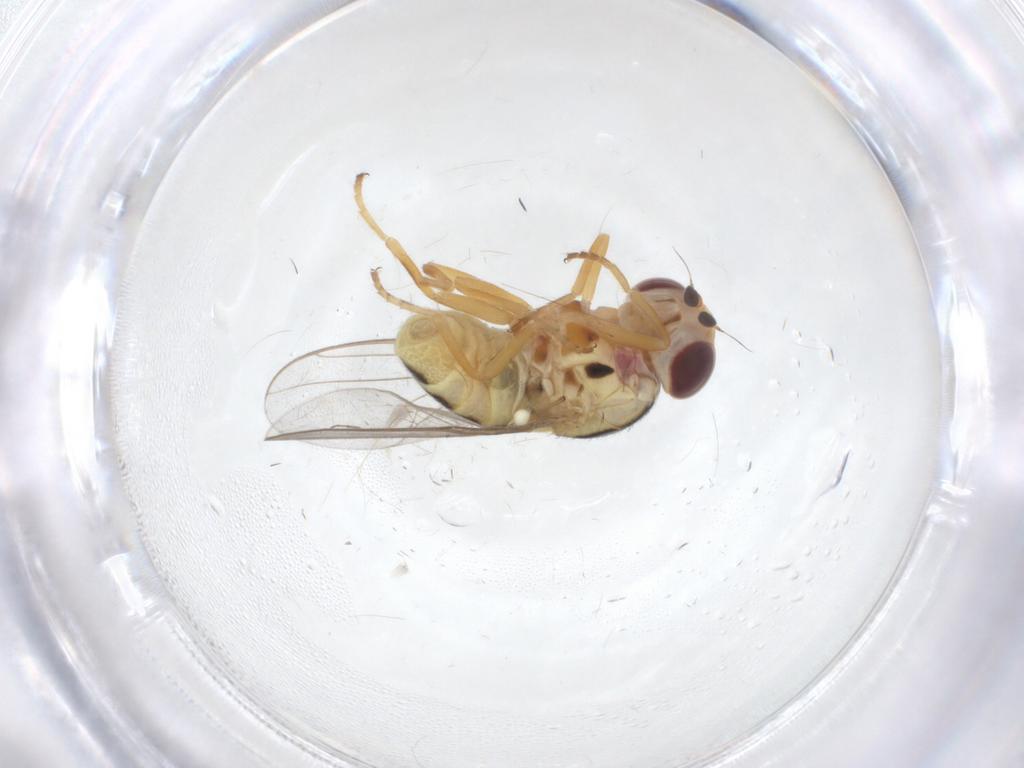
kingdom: Animalia
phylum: Arthropoda
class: Insecta
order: Diptera
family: Chloropidae
